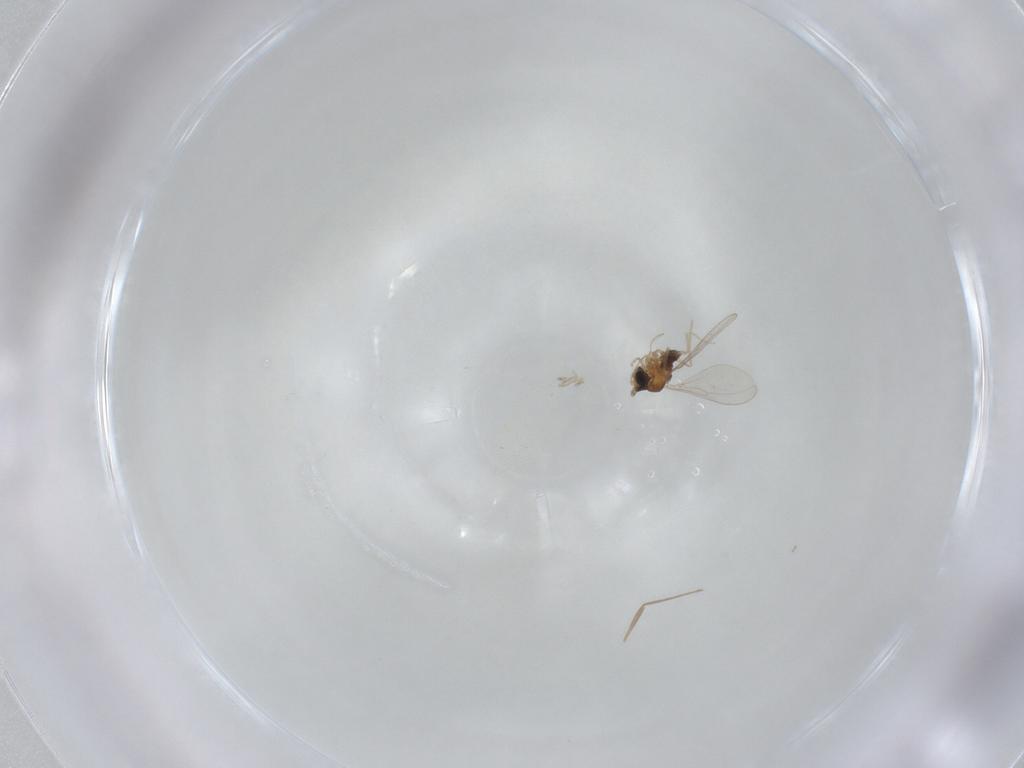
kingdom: Animalia
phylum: Arthropoda
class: Insecta
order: Diptera
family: Cecidomyiidae
